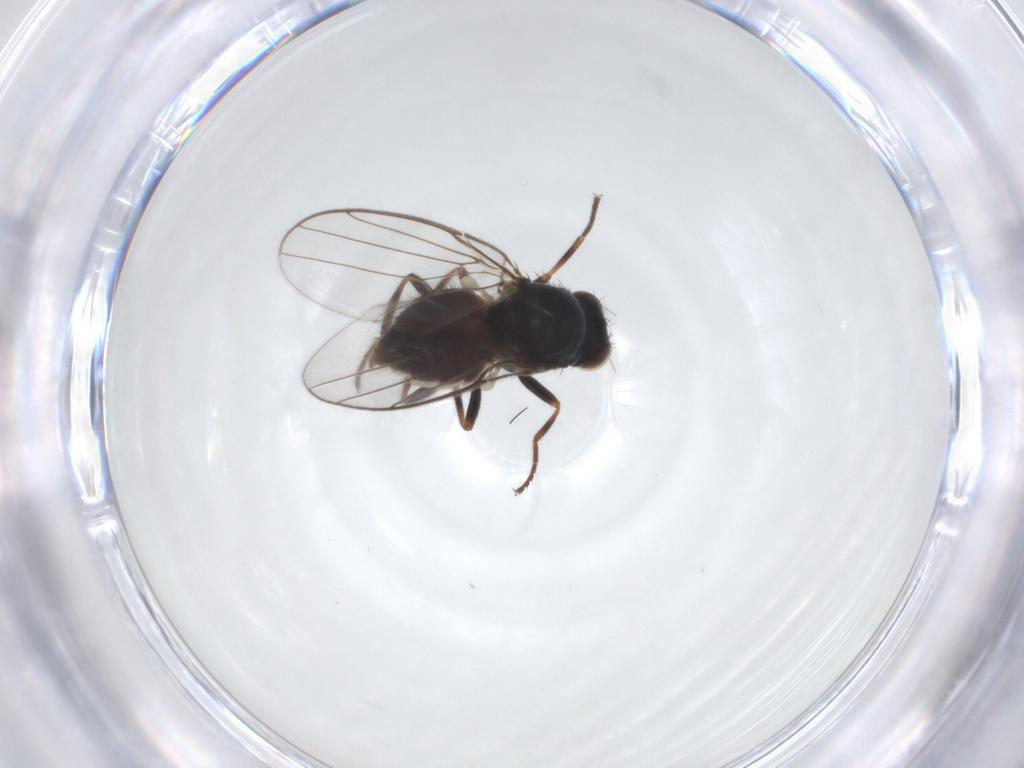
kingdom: Animalia
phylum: Arthropoda
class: Insecta
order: Diptera
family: Chloropidae
